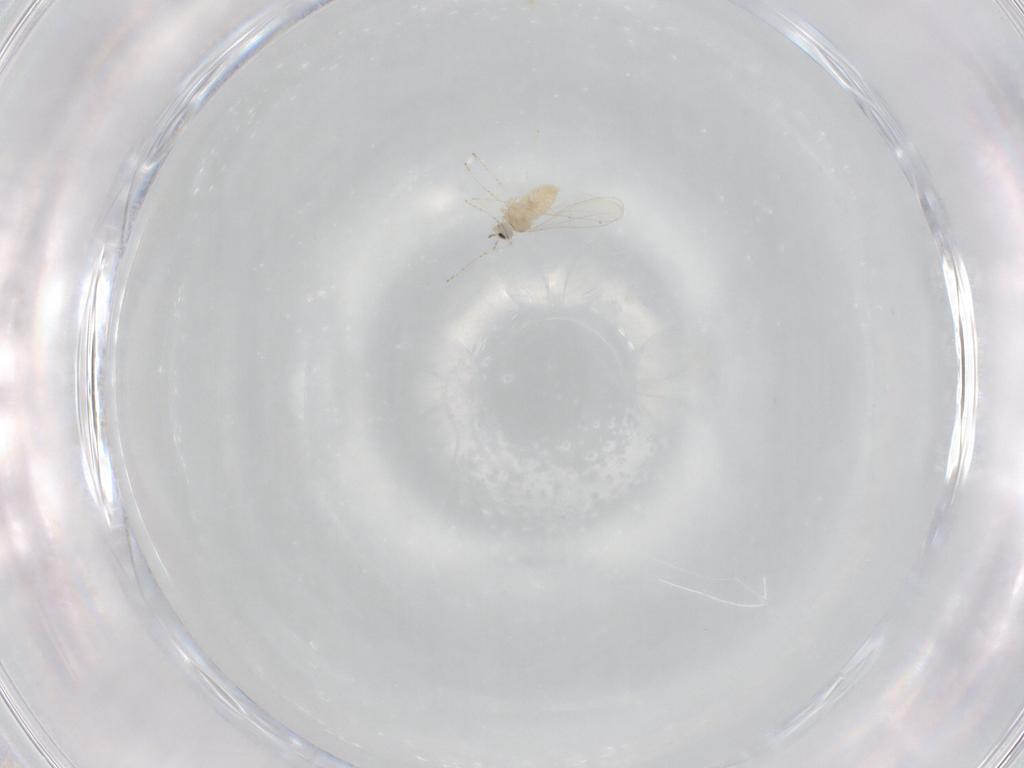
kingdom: Animalia
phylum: Arthropoda
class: Insecta
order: Diptera
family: Cecidomyiidae
